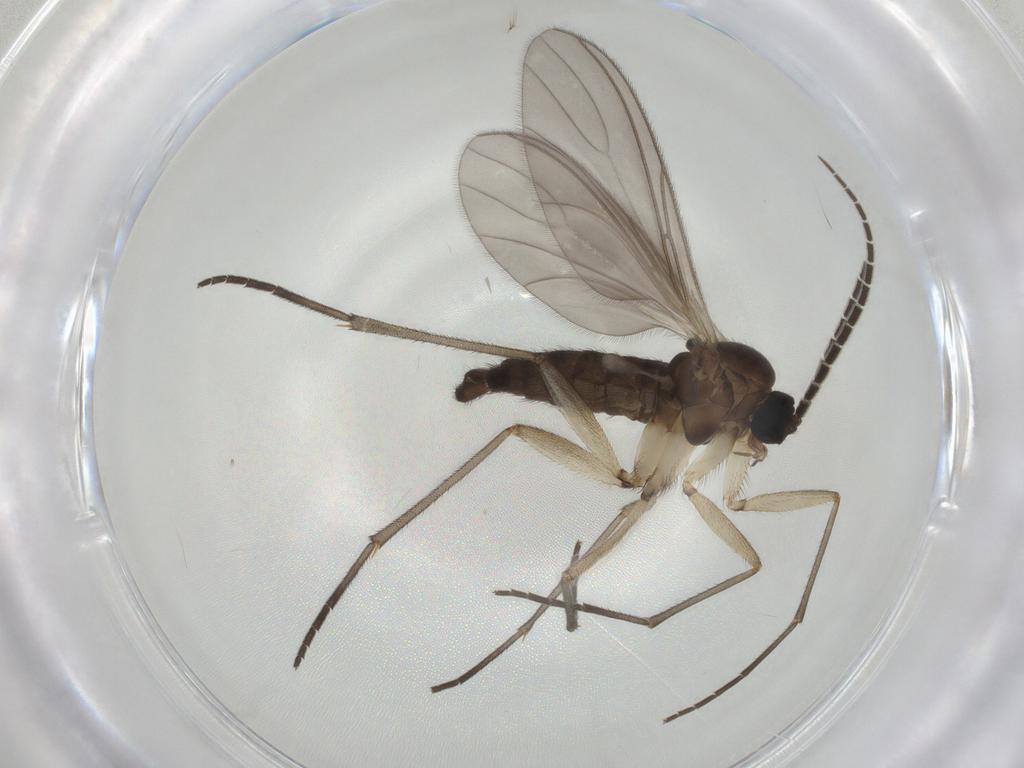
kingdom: Animalia
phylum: Arthropoda
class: Insecta
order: Diptera
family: Sciaridae
